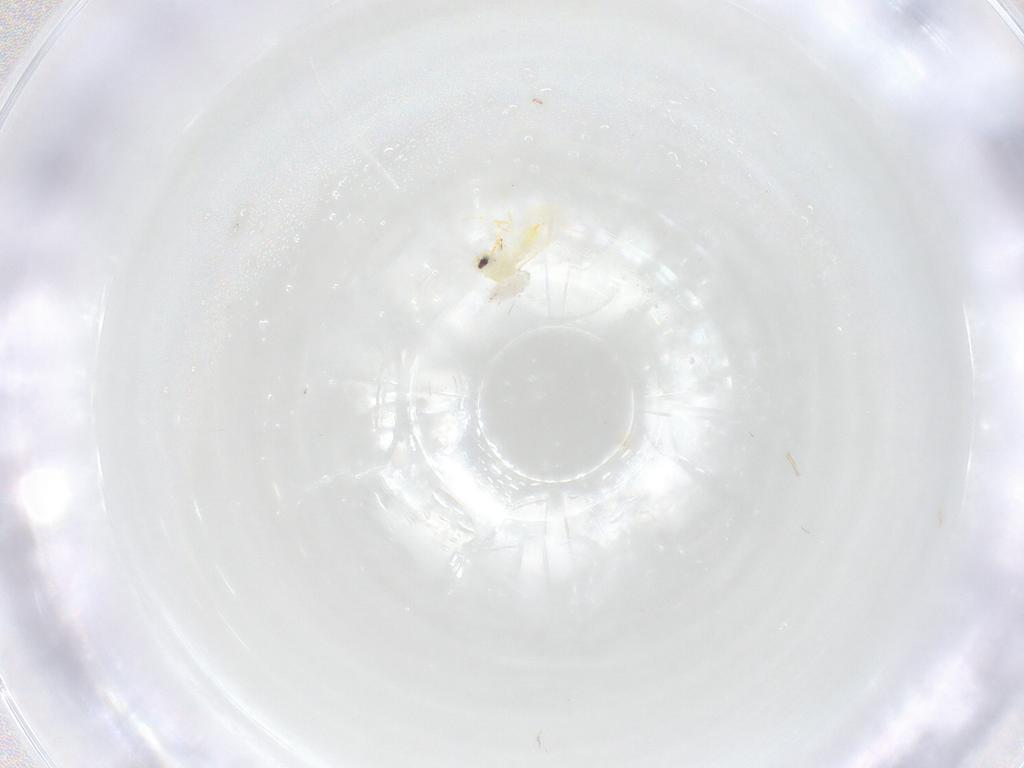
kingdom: Animalia
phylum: Arthropoda
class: Insecta
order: Hemiptera
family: Aleyrodidae
